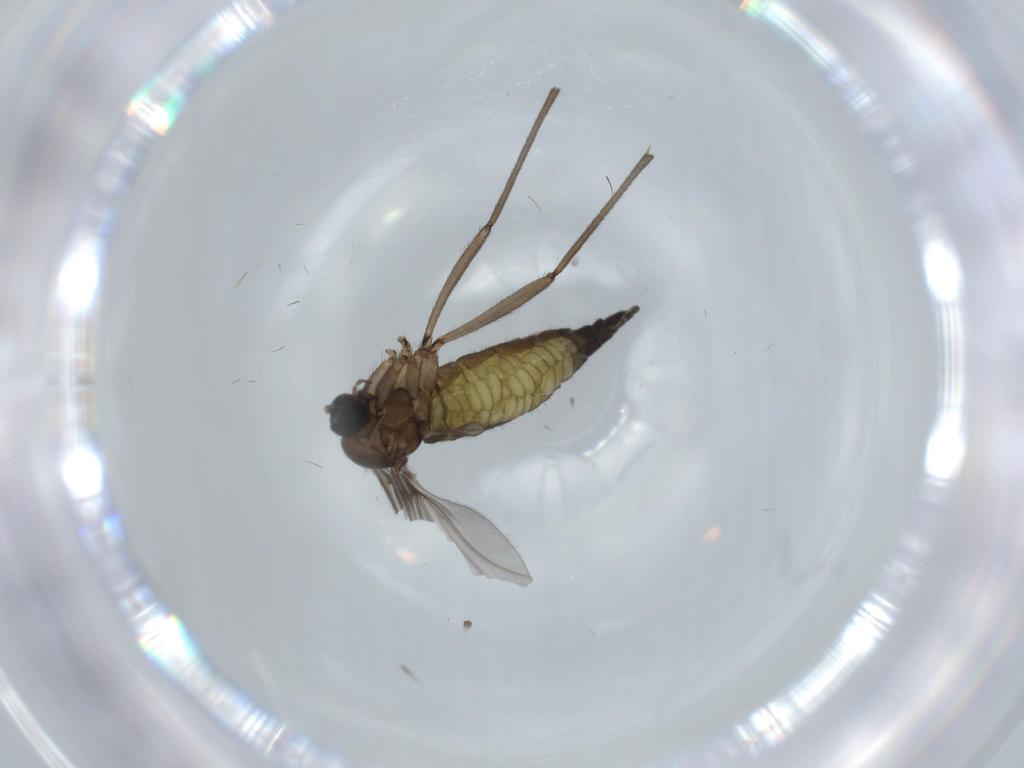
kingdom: Animalia
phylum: Arthropoda
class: Insecta
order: Diptera
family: Sciaridae
